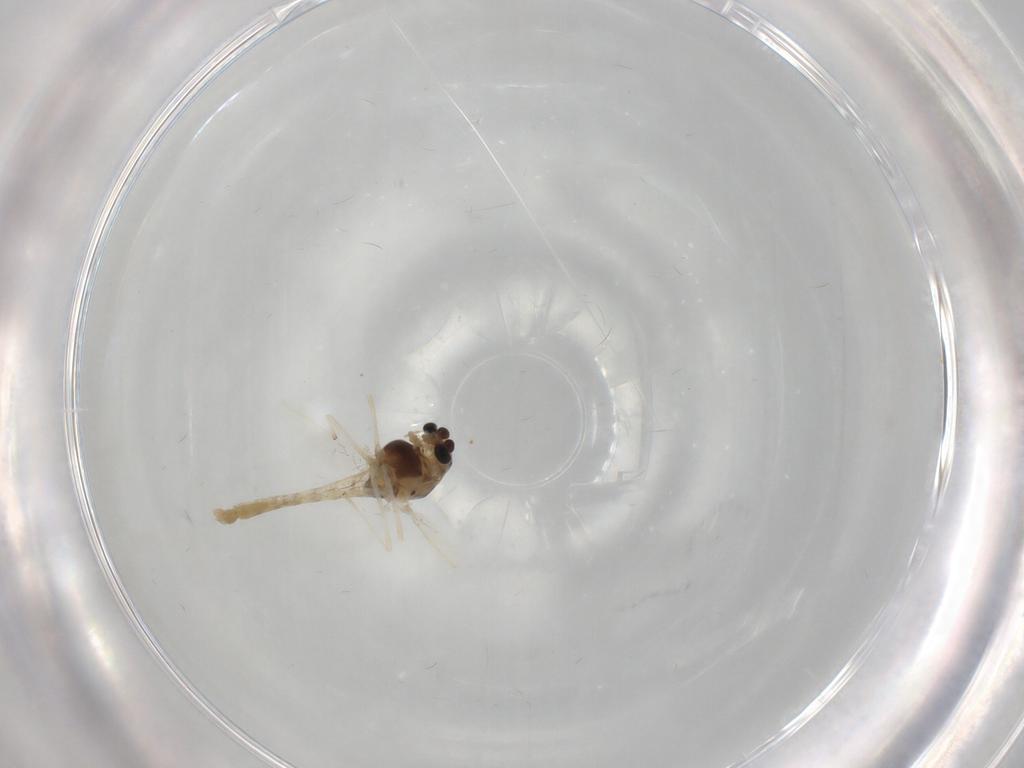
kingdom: Animalia
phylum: Arthropoda
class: Insecta
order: Diptera
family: Chironomidae
